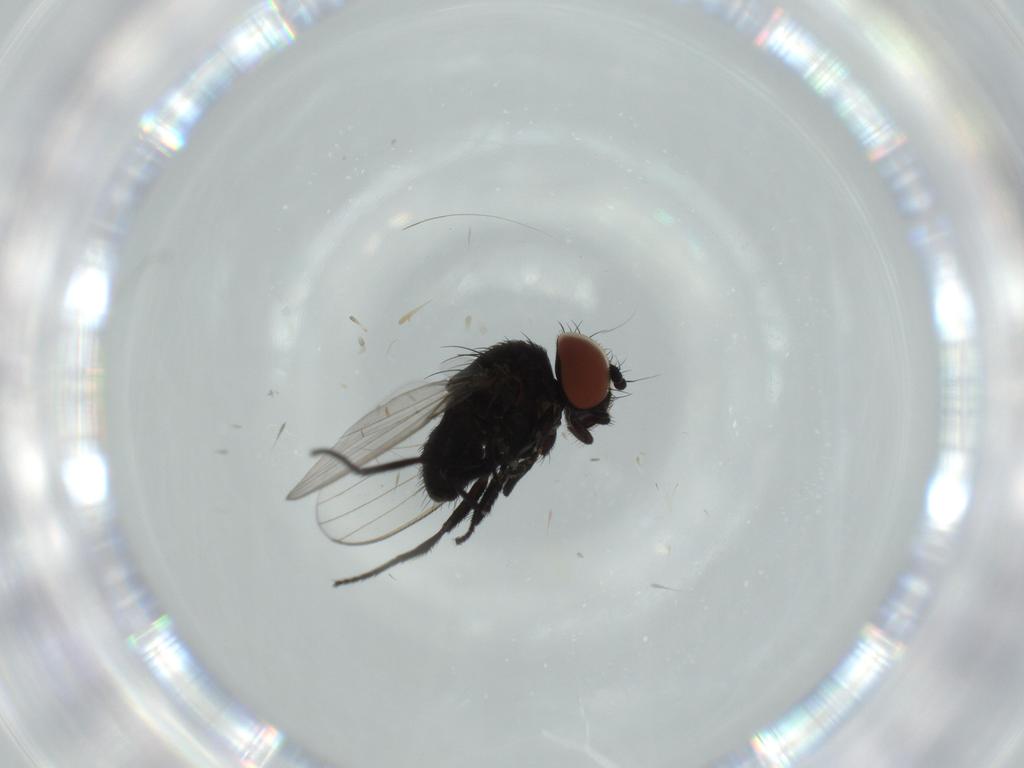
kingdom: Animalia
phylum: Arthropoda
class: Insecta
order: Diptera
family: Milichiidae
